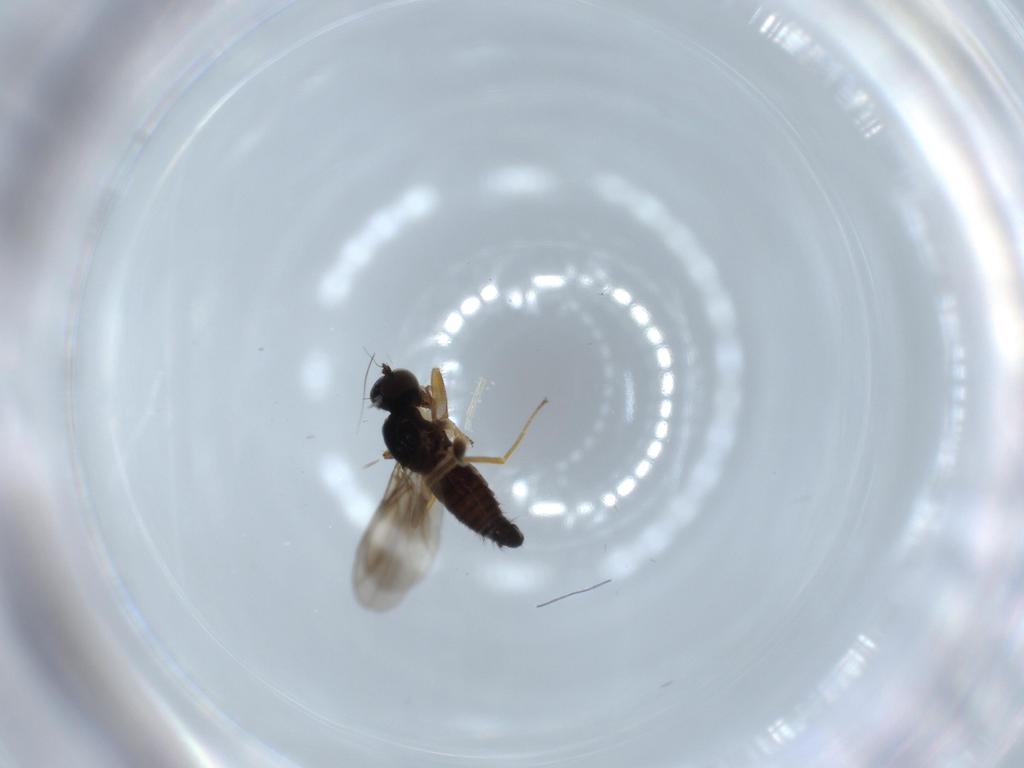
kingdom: Animalia
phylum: Arthropoda
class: Insecta
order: Diptera
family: Hybotidae
